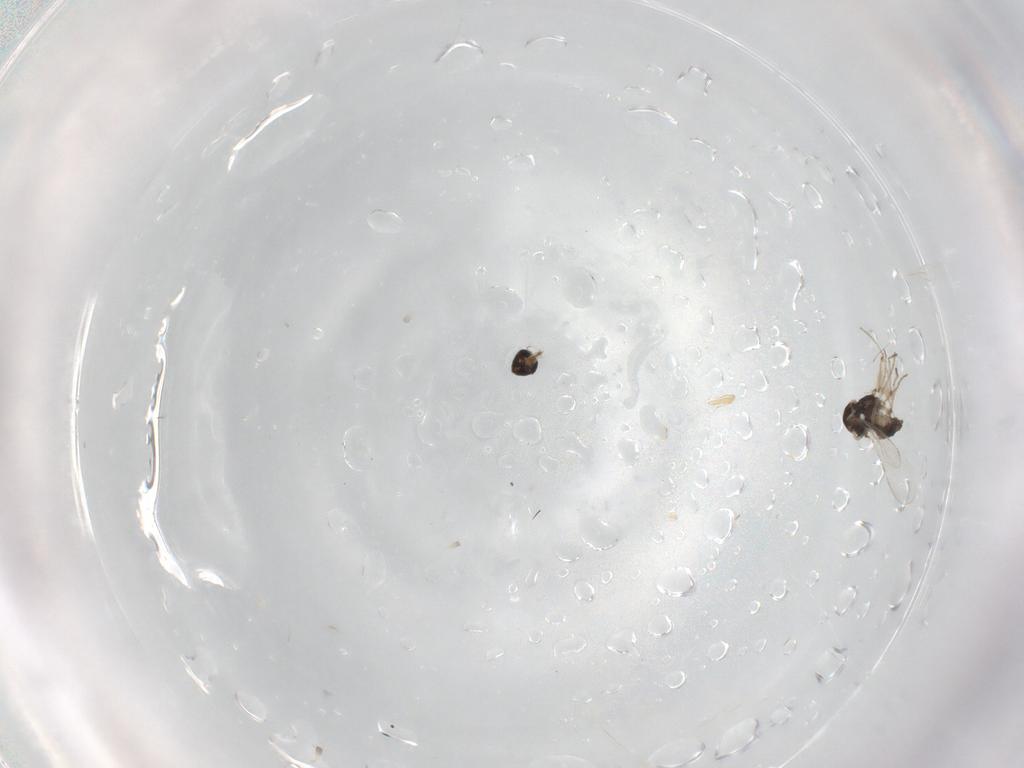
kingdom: Animalia
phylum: Arthropoda
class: Insecta
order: Diptera
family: Ceratopogonidae
